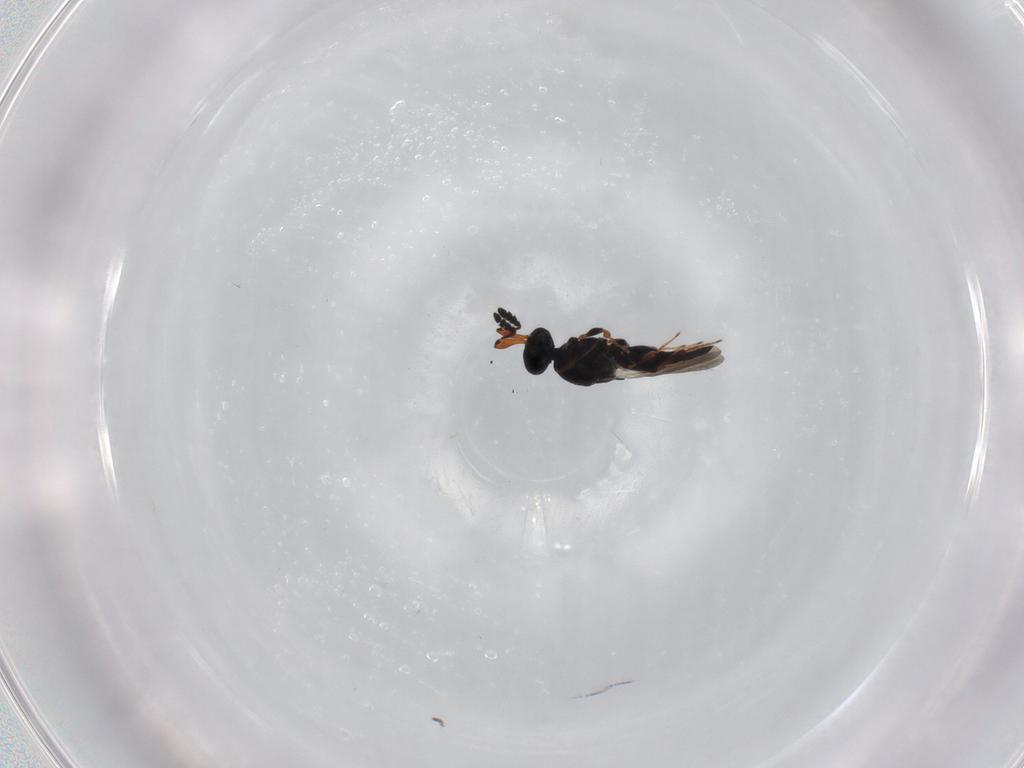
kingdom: Animalia
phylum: Arthropoda
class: Insecta
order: Hymenoptera
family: Platygastridae
